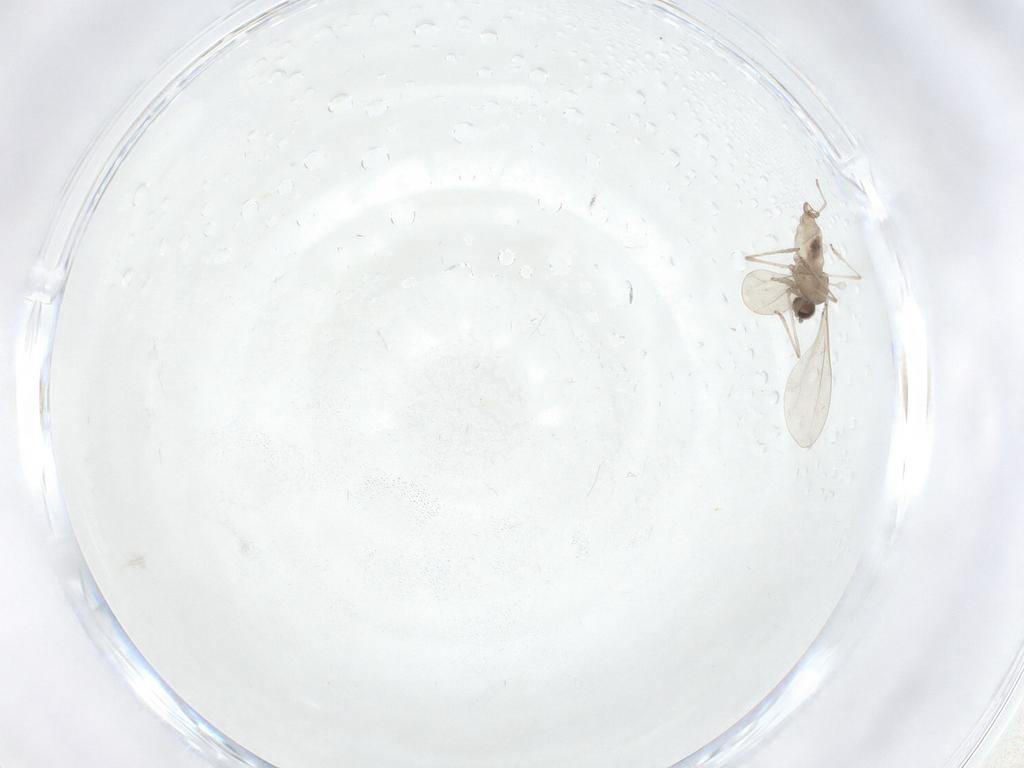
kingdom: Animalia
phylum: Arthropoda
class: Insecta
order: Diptera
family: Cecidomyiidae
